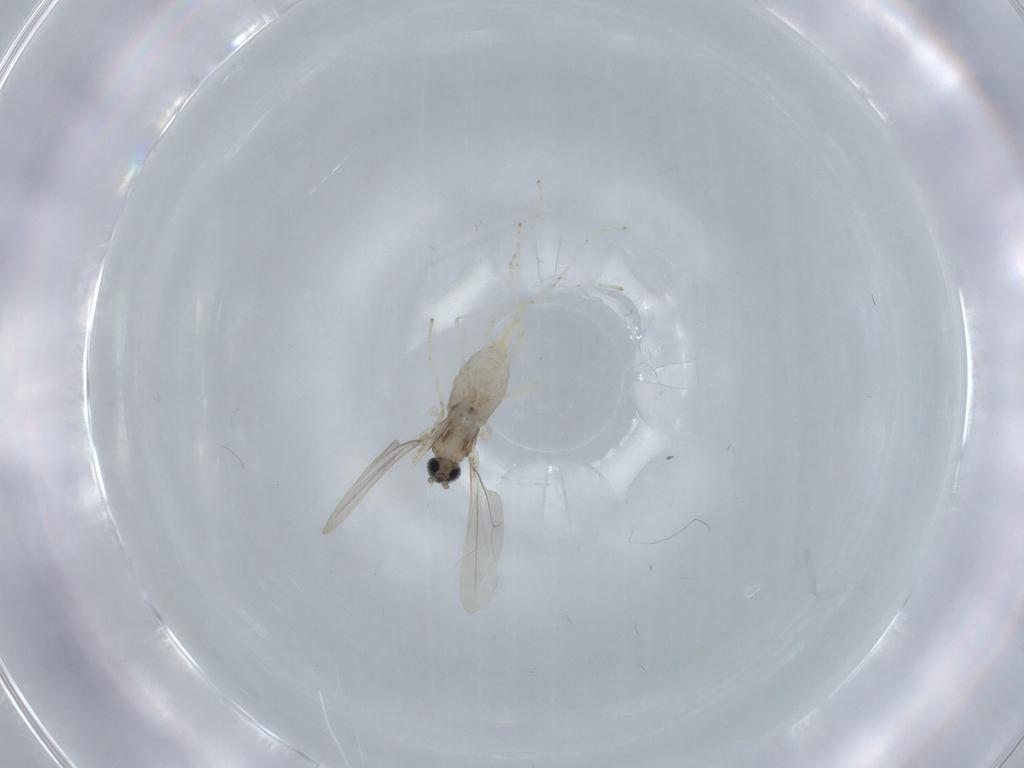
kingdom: Animalia
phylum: Arthropoda
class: Insecta
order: Diptera
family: Cecidomyiidae
